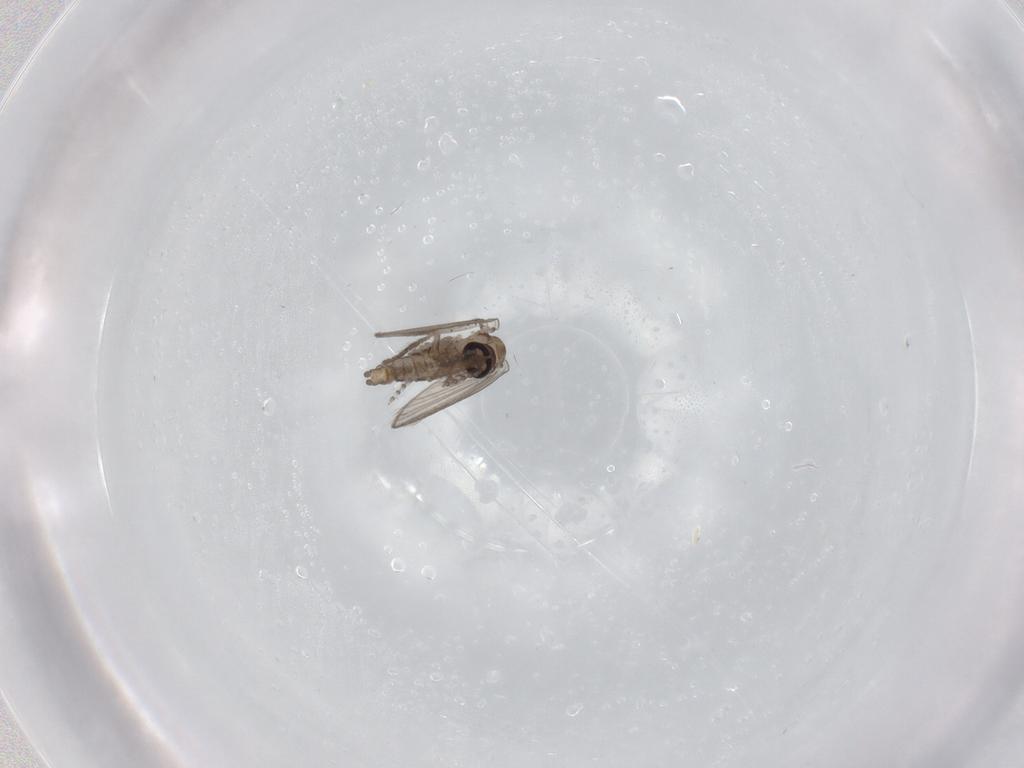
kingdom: Animalia
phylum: Arthropoda
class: Insecta
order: Diptera
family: Psychodidae
